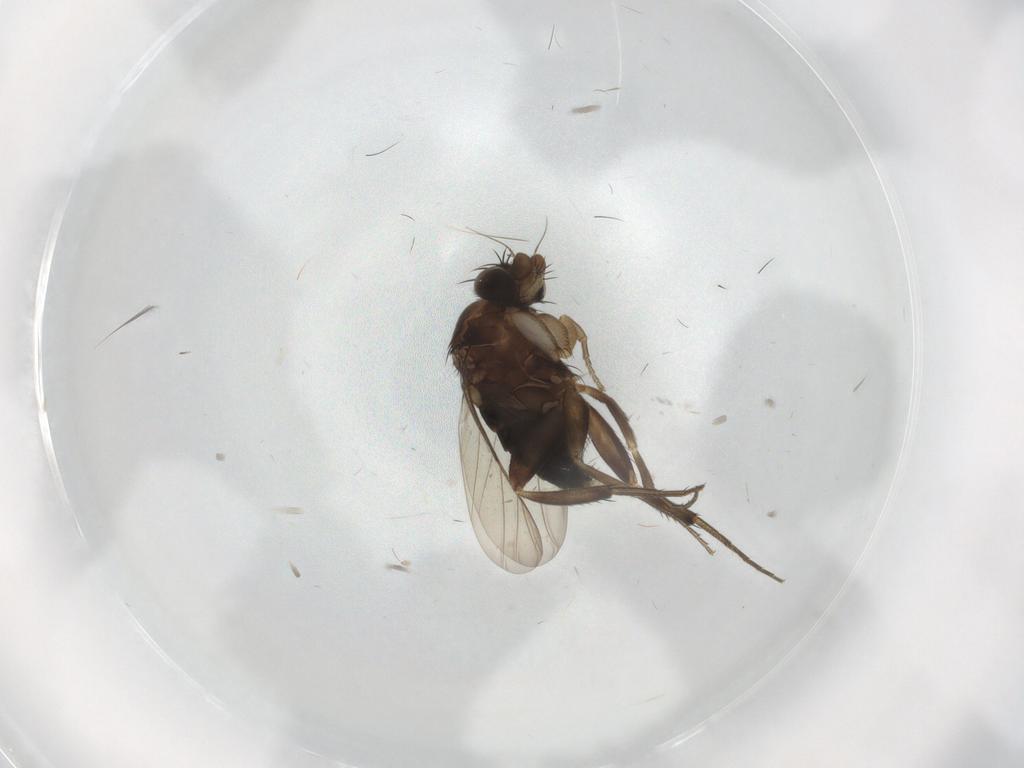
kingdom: Animalia
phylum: Arthropoda
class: Insecta
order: Diptera
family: Phoridae
